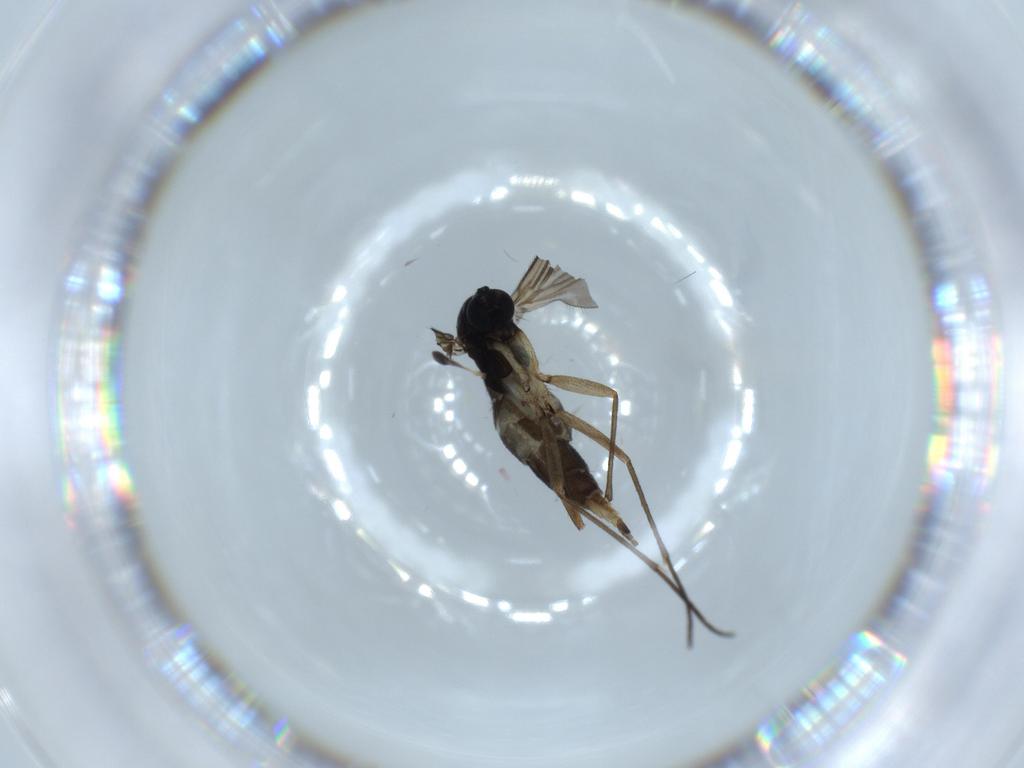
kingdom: Animalia
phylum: Arthropoda
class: Insecta
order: Diptera
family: Sciaridae
